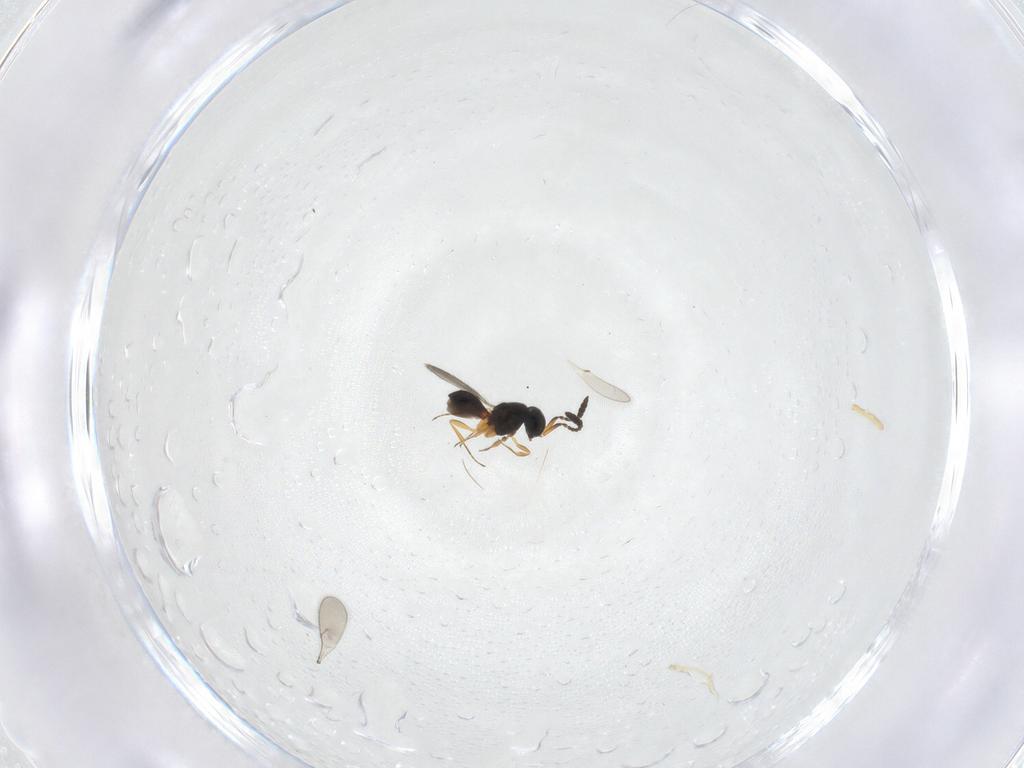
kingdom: Animalia
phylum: Arthropoda
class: Insecta
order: Hymenoptera
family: Scelionidae
